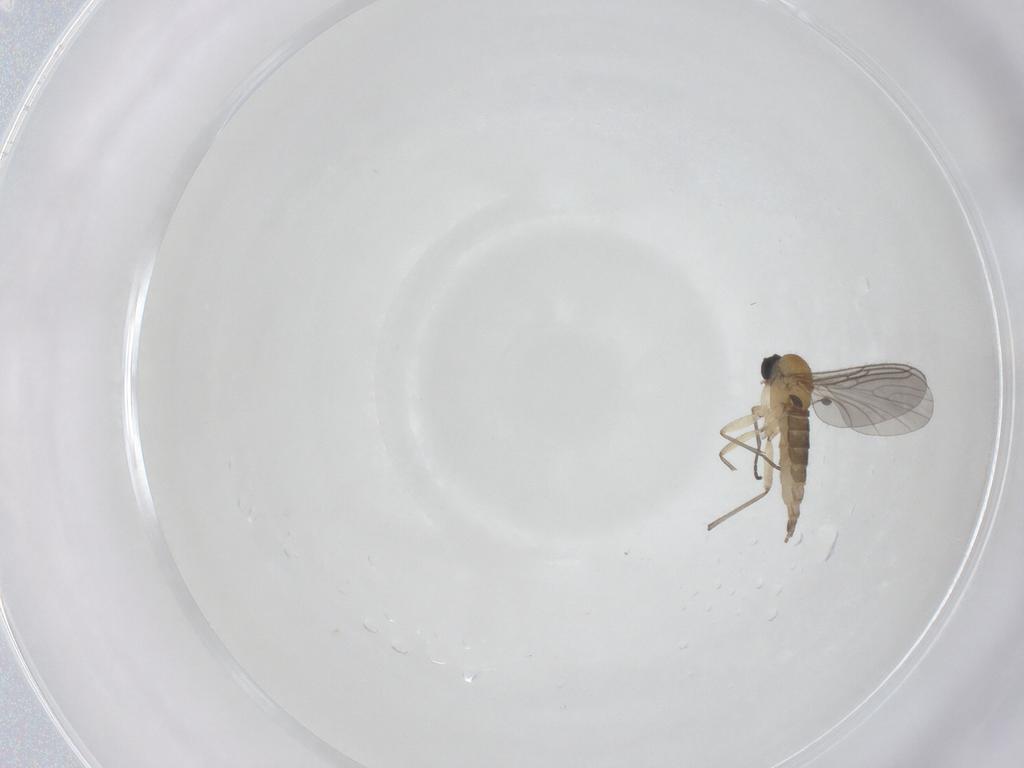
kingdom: Animalia
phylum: Arthropoda
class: Insecta
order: Diptera
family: Sciaridae
